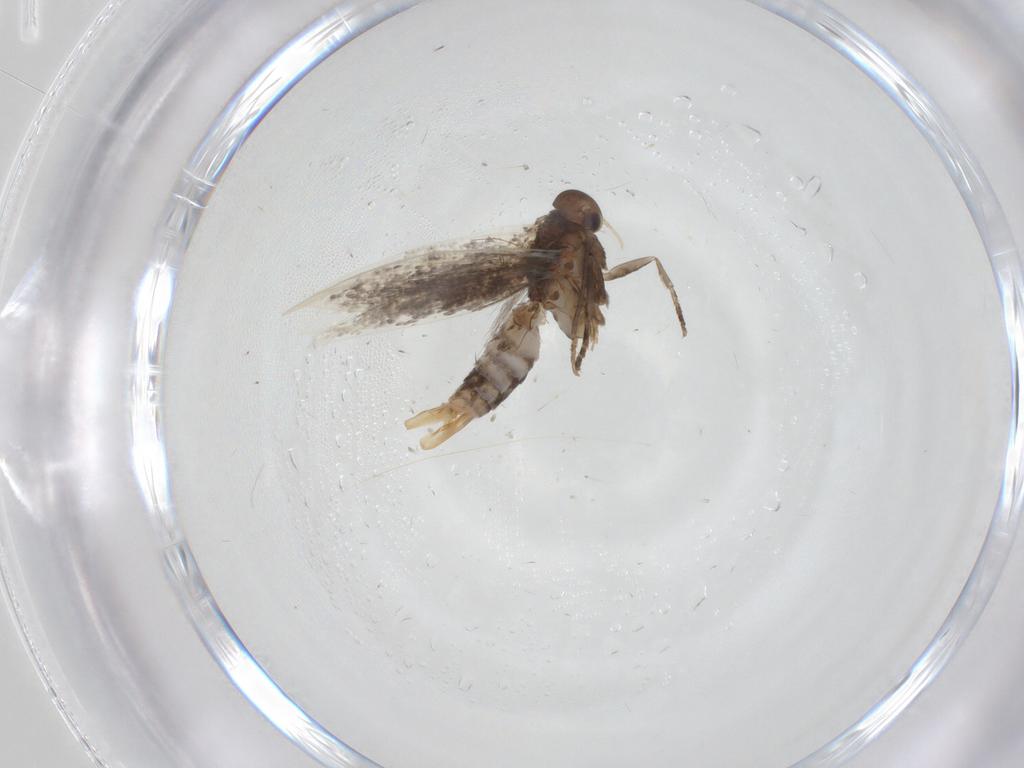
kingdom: Animalia
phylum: Arthropoda
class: Insecta
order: Lepidoptera
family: Elachistidae
